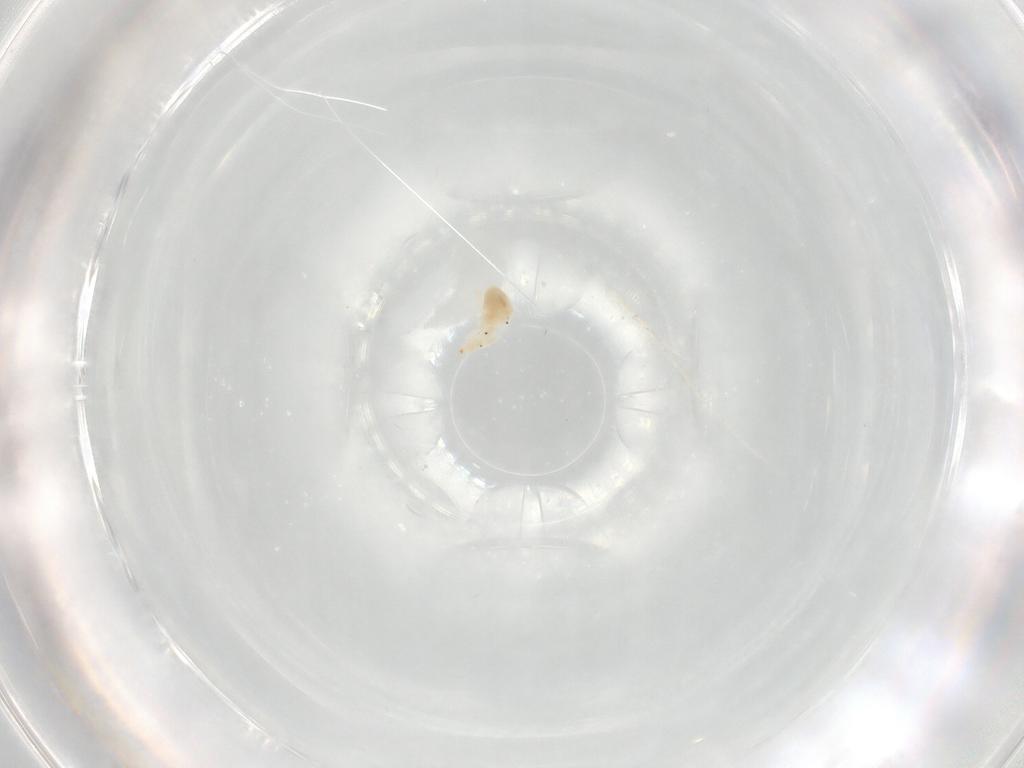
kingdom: Animalia
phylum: Arthropoda
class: Arachnida
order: Trombidiformes
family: Bdellidae
